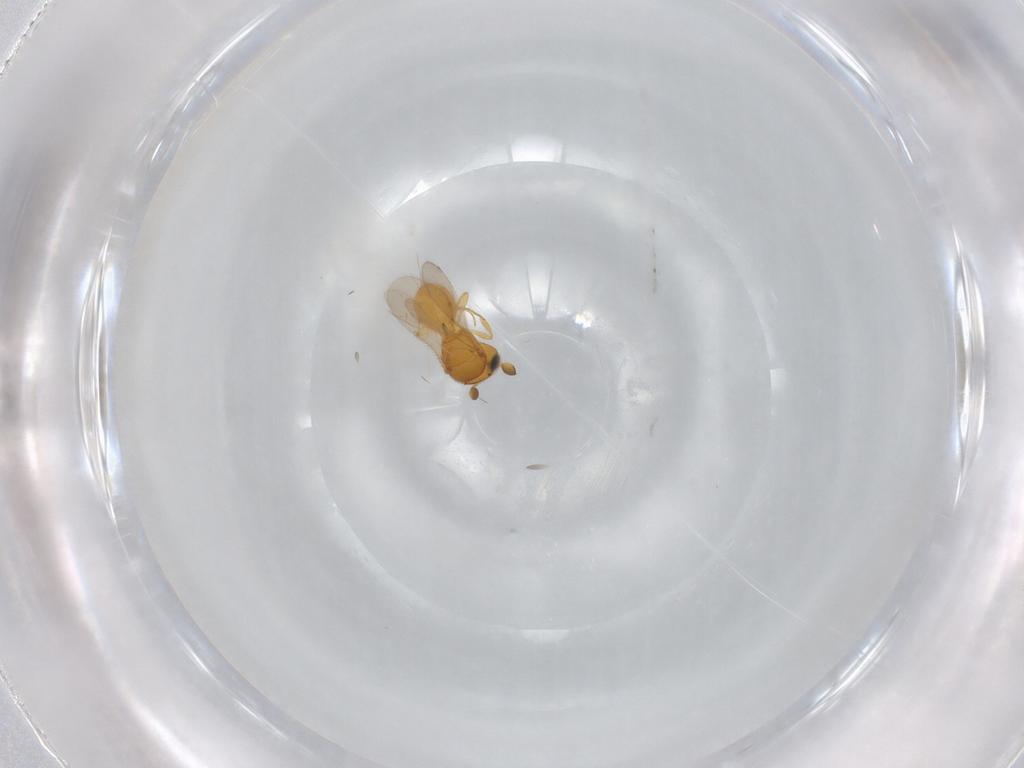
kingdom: Animalia
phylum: Arthropoda
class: Insecta
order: Hymenoptera
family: Scelionidae
